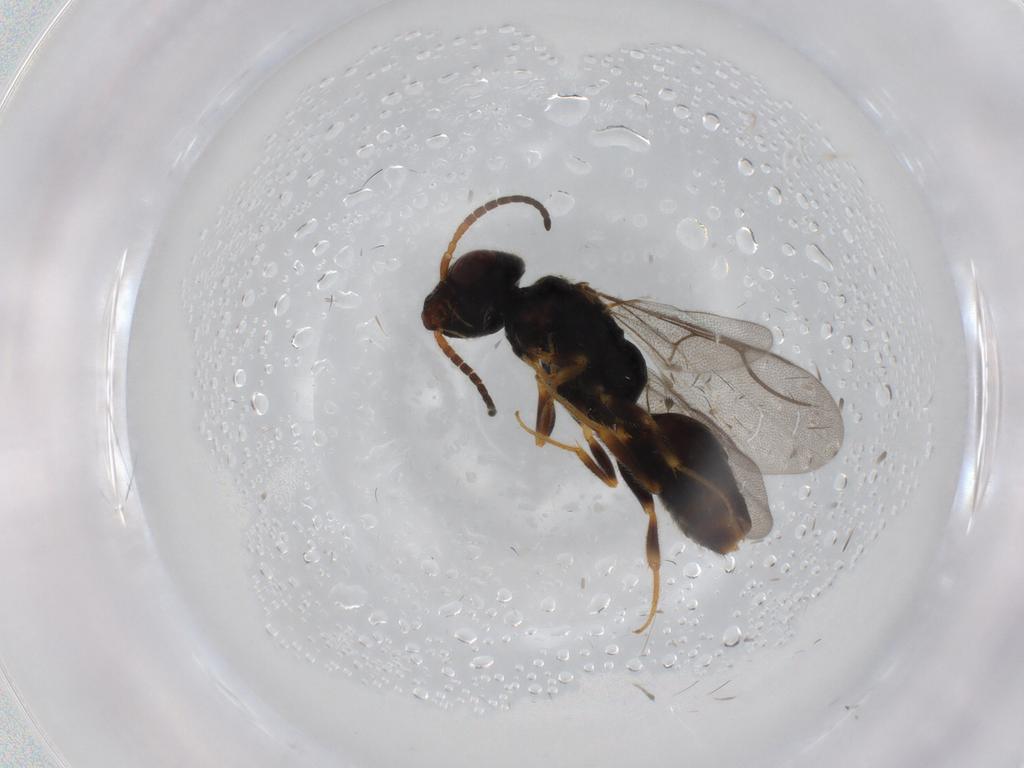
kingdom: Animalia
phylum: Arthropoda
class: Insecta
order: Hymenoptera
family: Bethylidae
